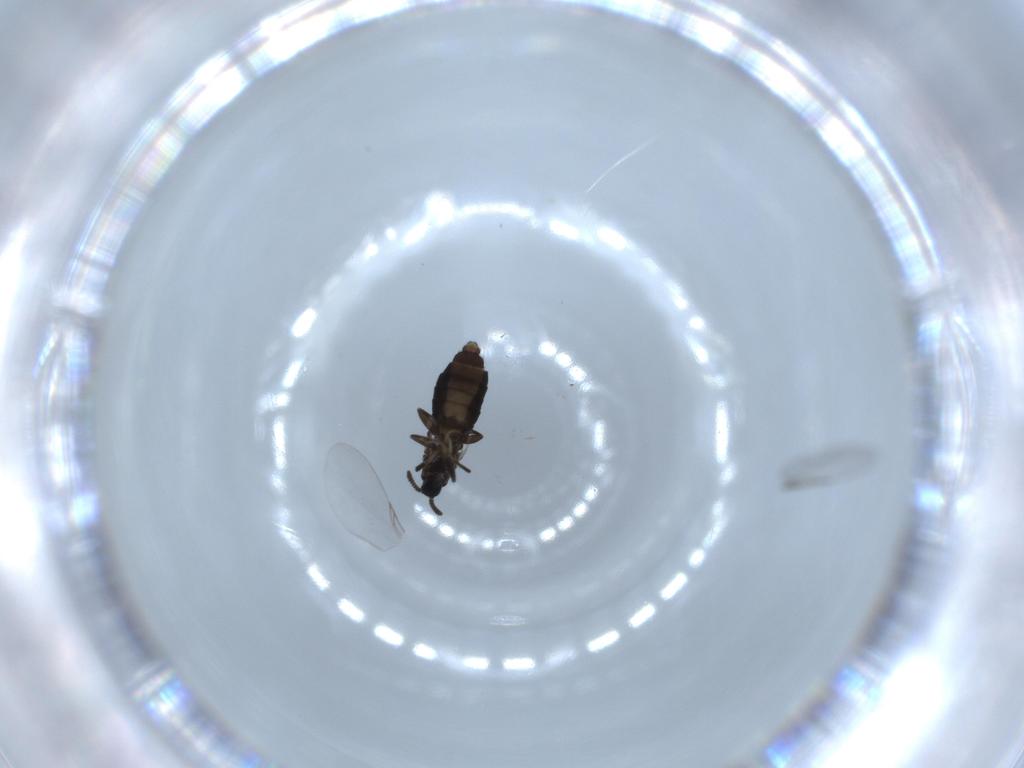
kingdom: Animalia
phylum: Arthropoda
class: Insecta
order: Diptera
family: Scatopsidae
